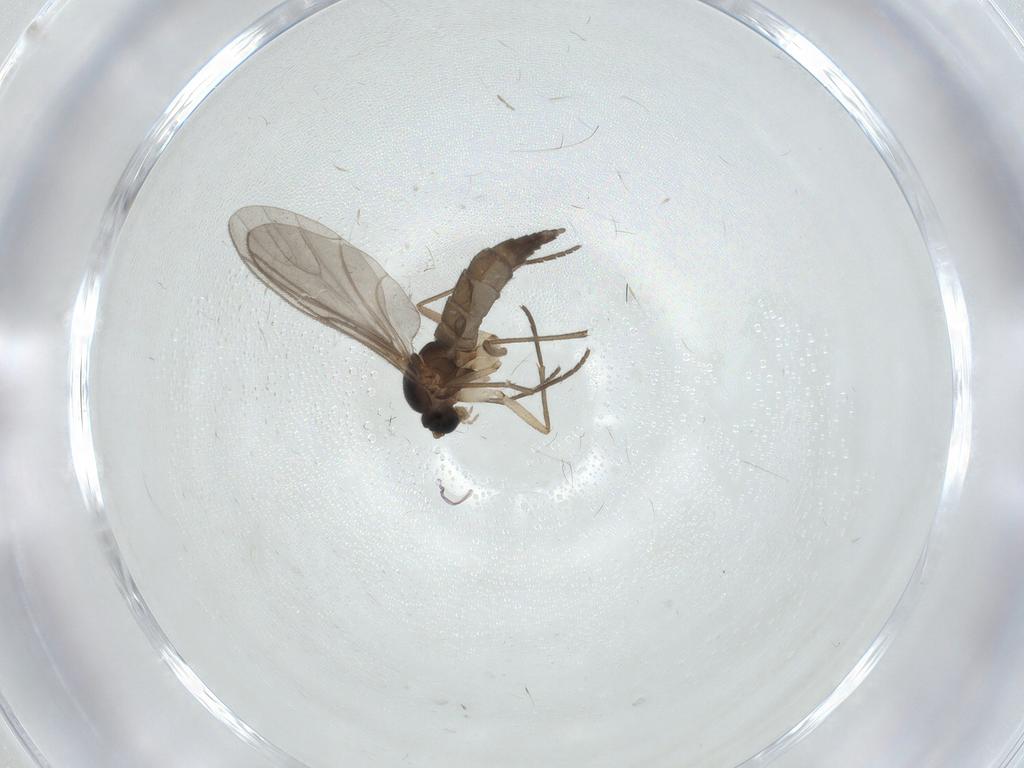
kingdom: Animalia
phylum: Arthropoda
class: Insecta
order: Diptera
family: Sciaridae
